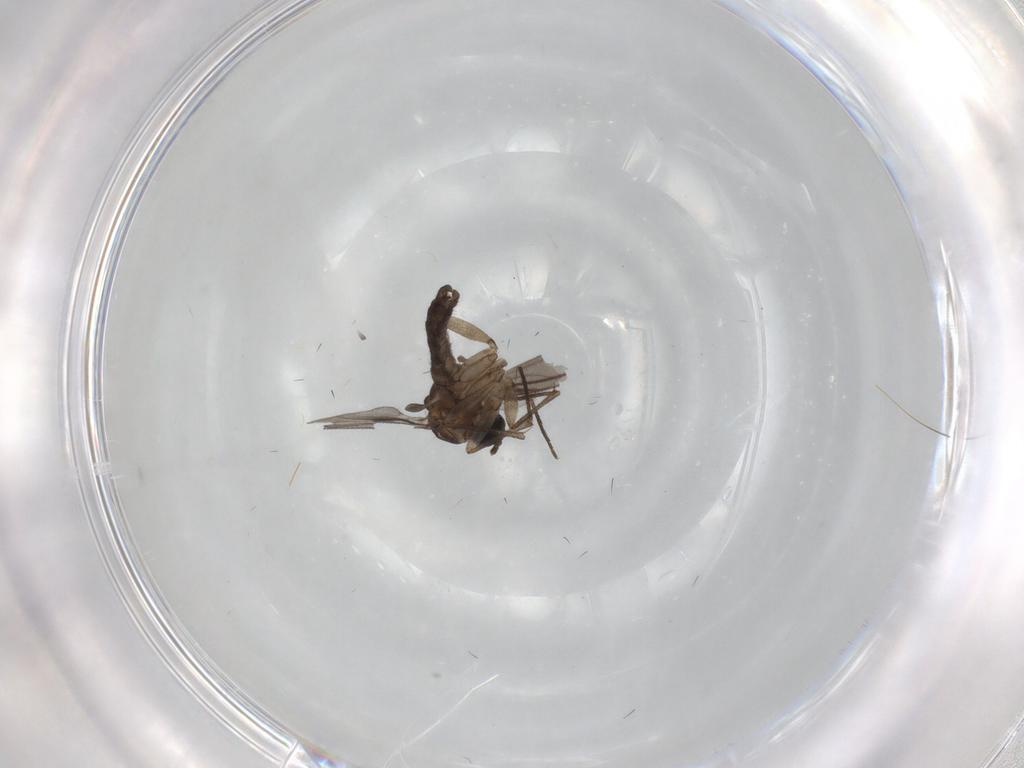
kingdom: Animalia
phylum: Arthropoda
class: Insecta
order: Diptera
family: Sciaridae
